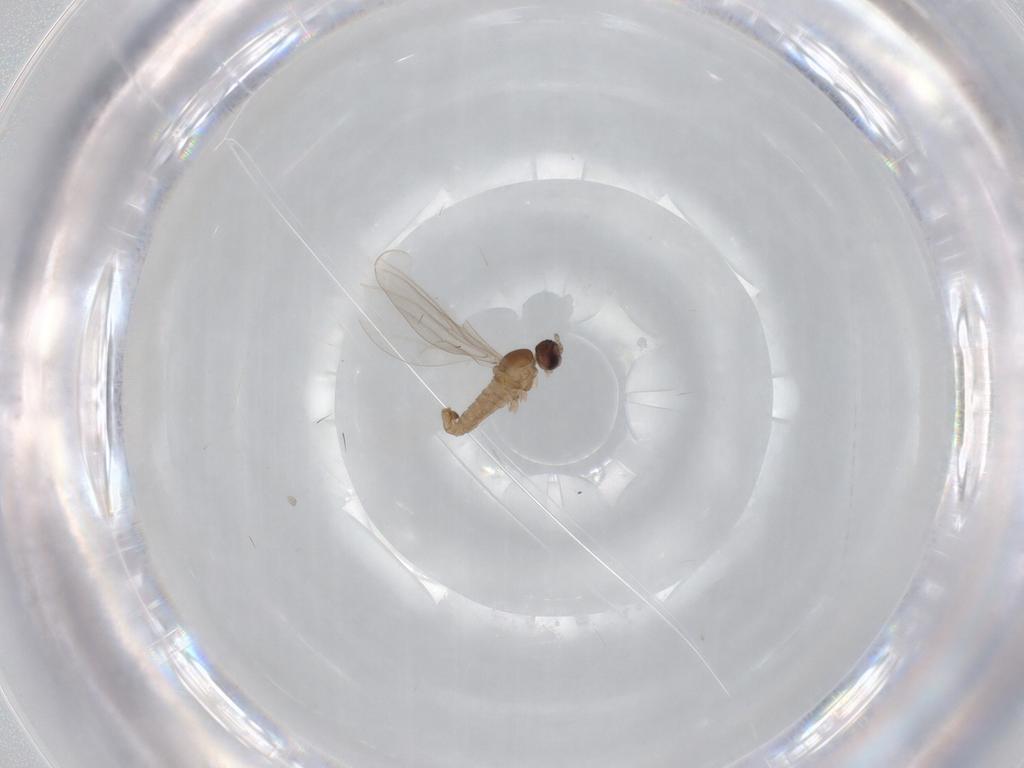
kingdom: Animalia
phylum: Arthropoda
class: Insecta
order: Diptera
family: Cecidomyiidae
